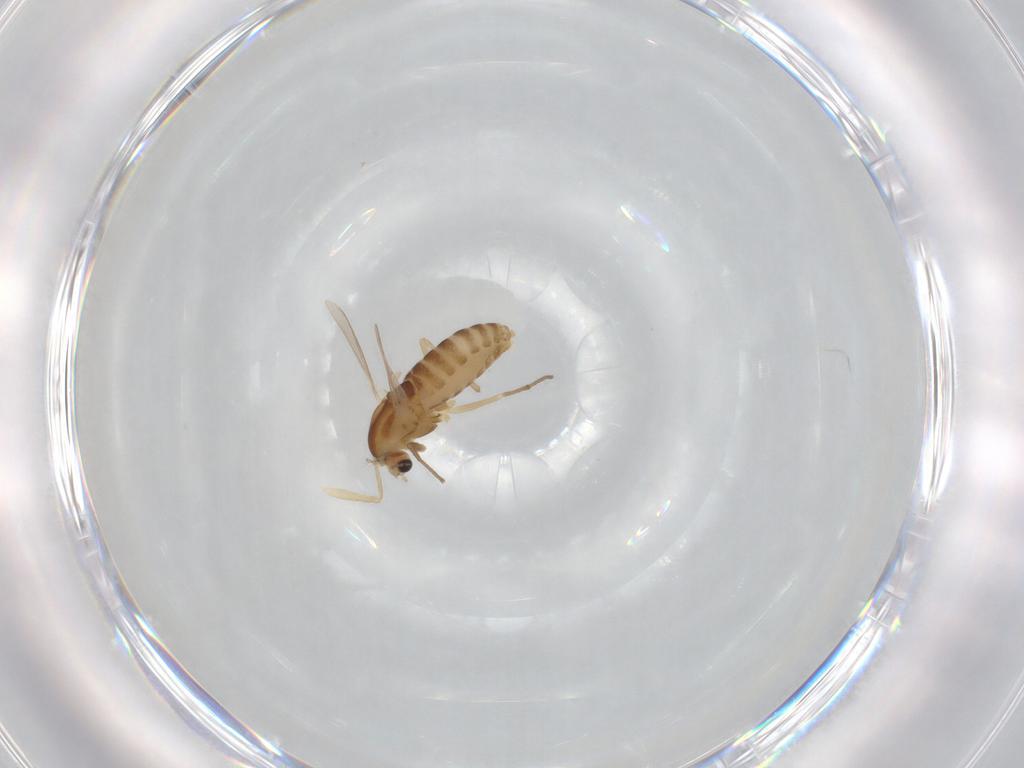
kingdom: Animalia
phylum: Arthropoda
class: Insecta
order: Diptera
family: Chironomidae
